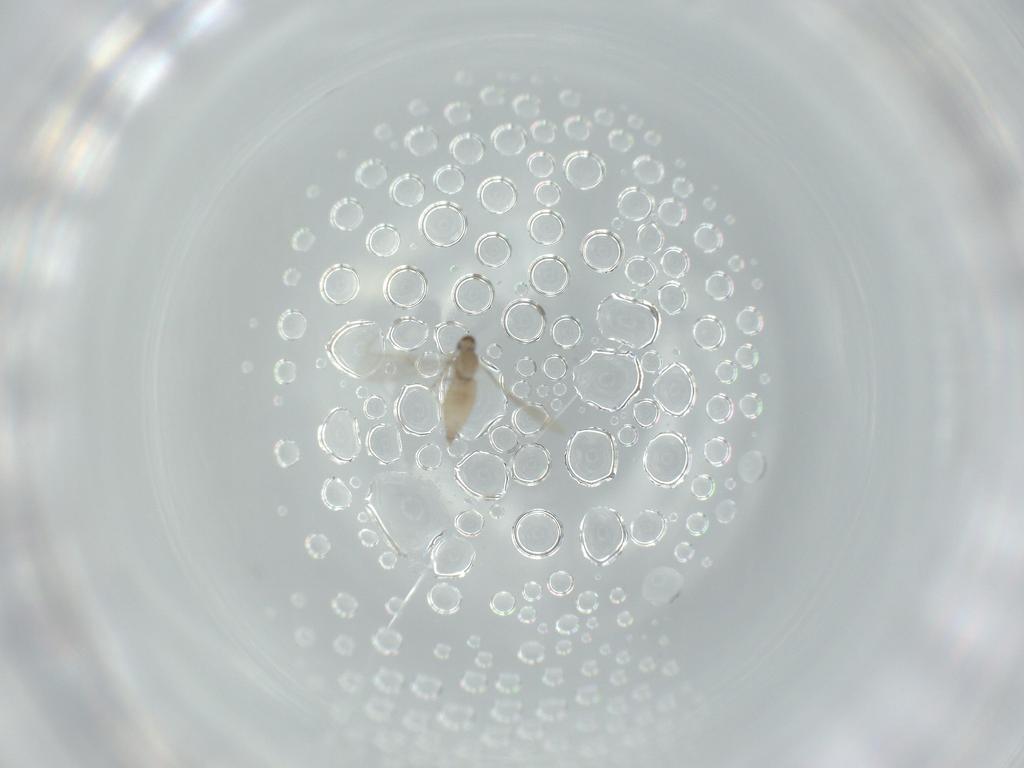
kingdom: Animalia
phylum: Arthropoda
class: Insecta
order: Diptera
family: Cecidomyiidae
